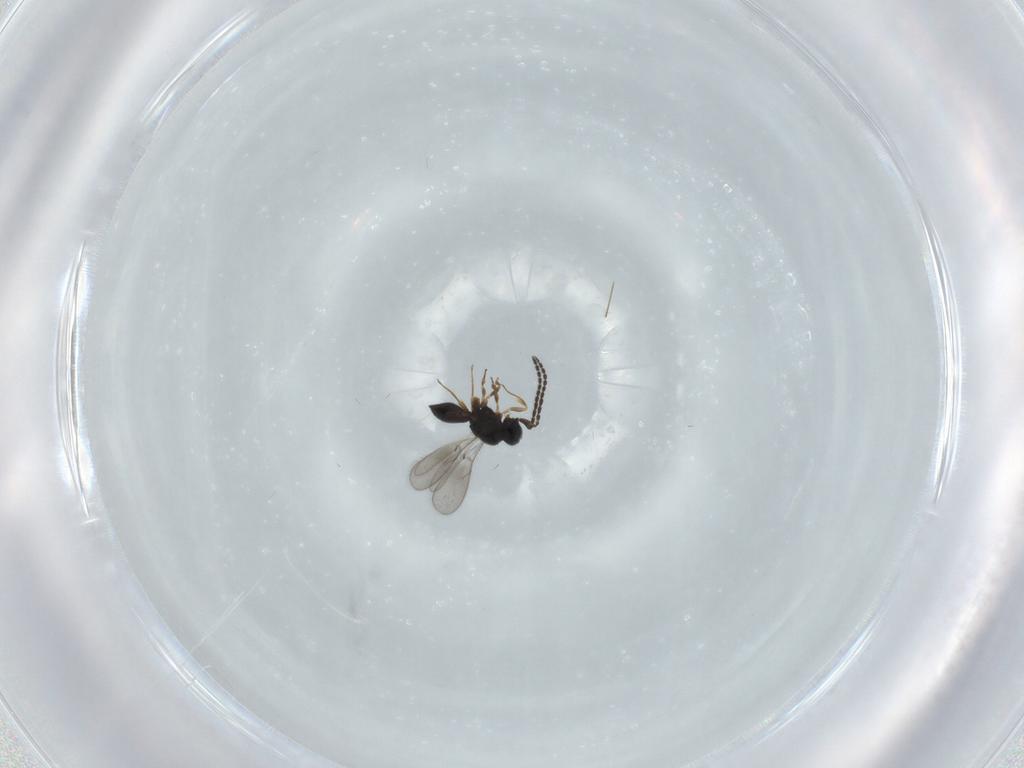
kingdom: Animalia
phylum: Arthropoda
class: Insecta
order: Hymenoptera
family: Scelionidae
